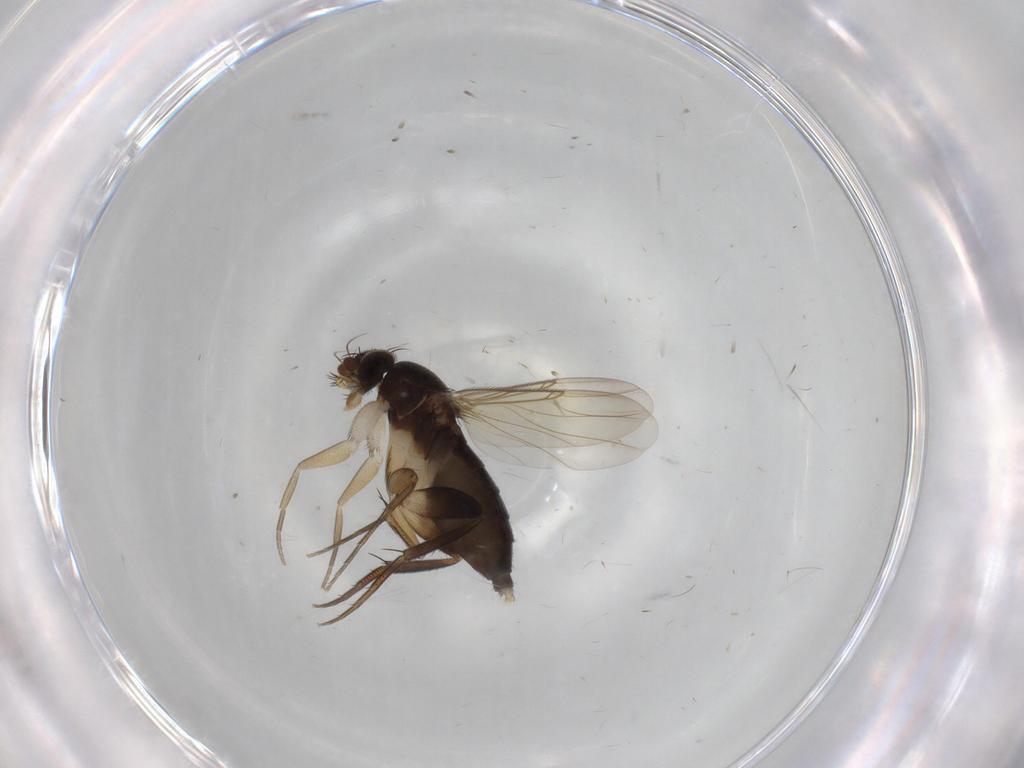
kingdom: Animalia
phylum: Arthropoda
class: Insecta
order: Diptera
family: Phoridae
